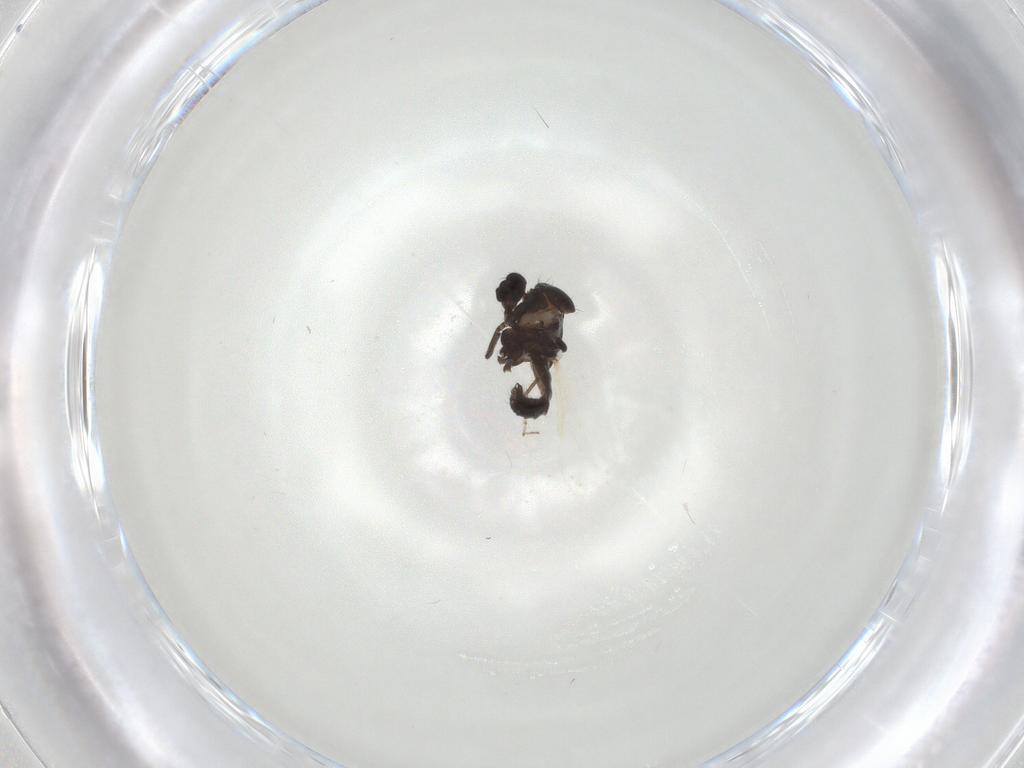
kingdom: Animalia
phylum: Arthropoda
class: Insecta
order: Diptera
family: Ceratopogonidae
